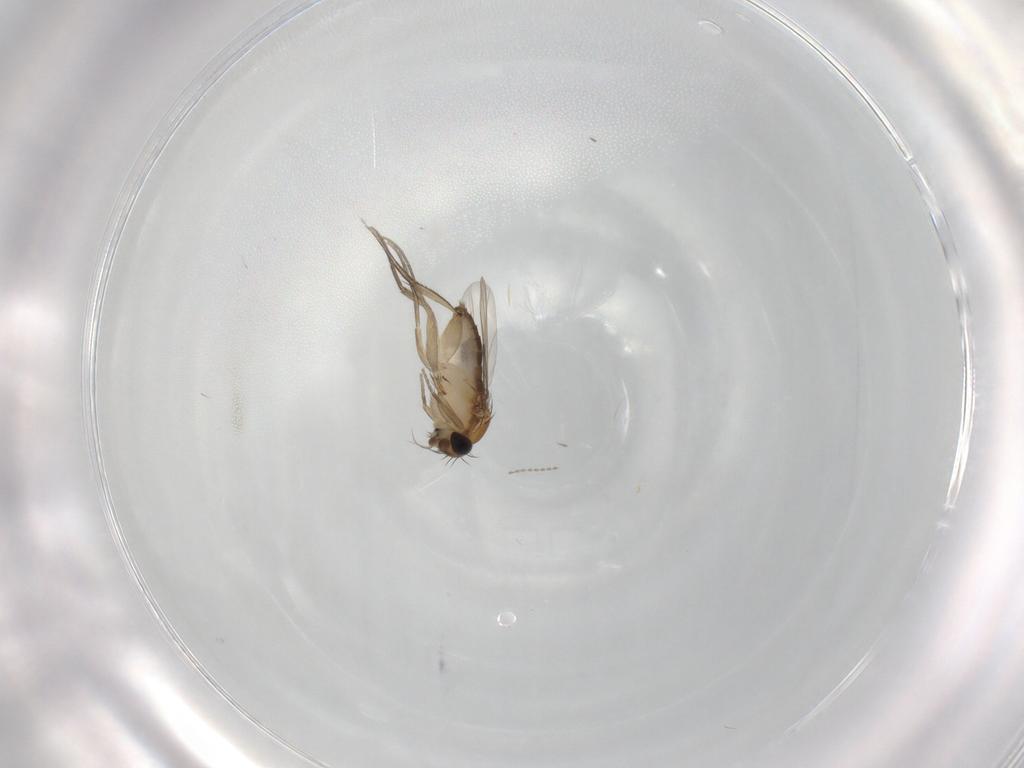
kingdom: Animalia
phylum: Arthropoda
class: Insecta
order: Diptera
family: Phoridae
